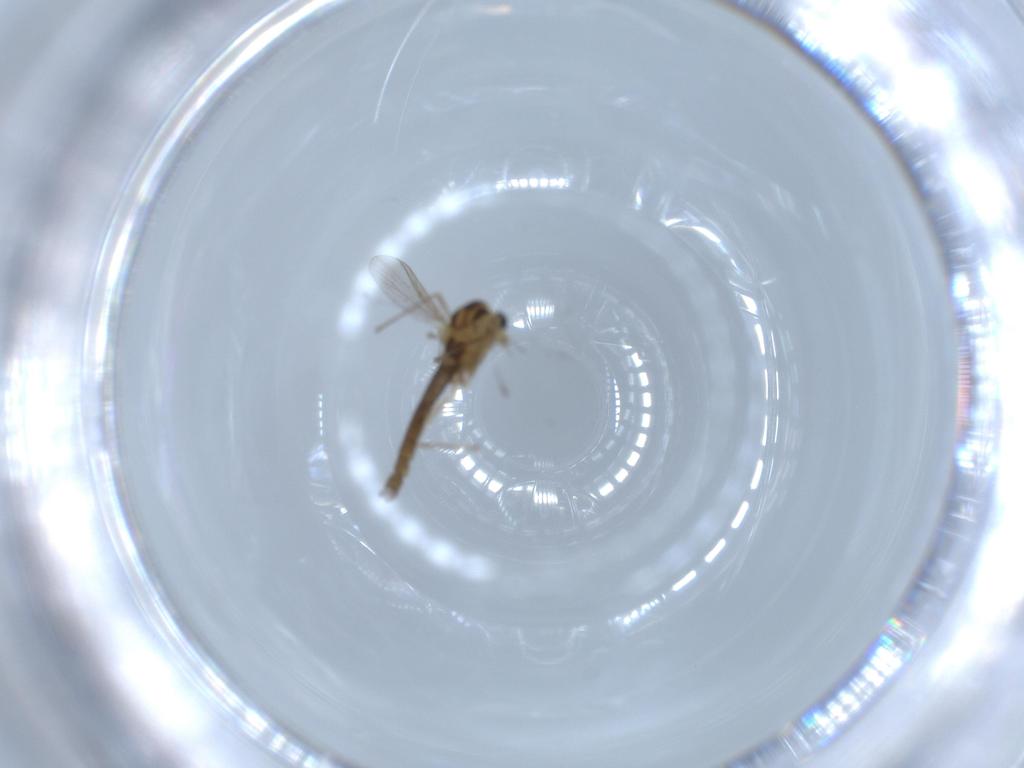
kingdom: Animalia
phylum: Arthropoda
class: Insecta
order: Diptera
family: Chironomidae
